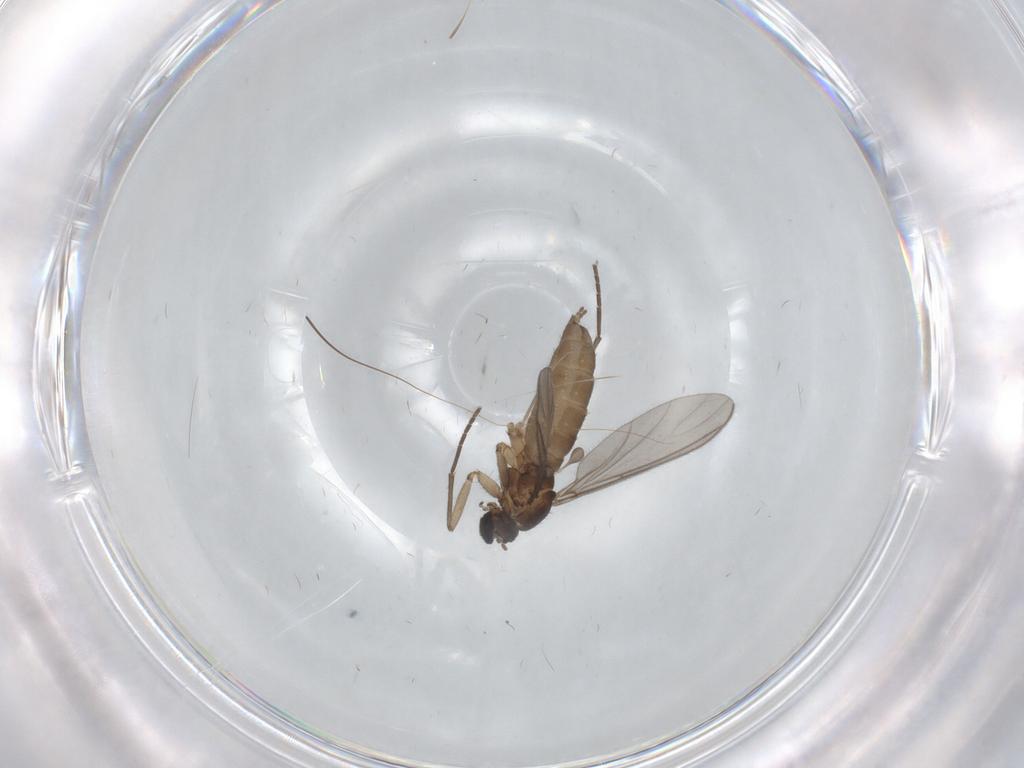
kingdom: Animalia
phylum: Arthropoda
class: Insecta
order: Diptera
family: Sciaridae
